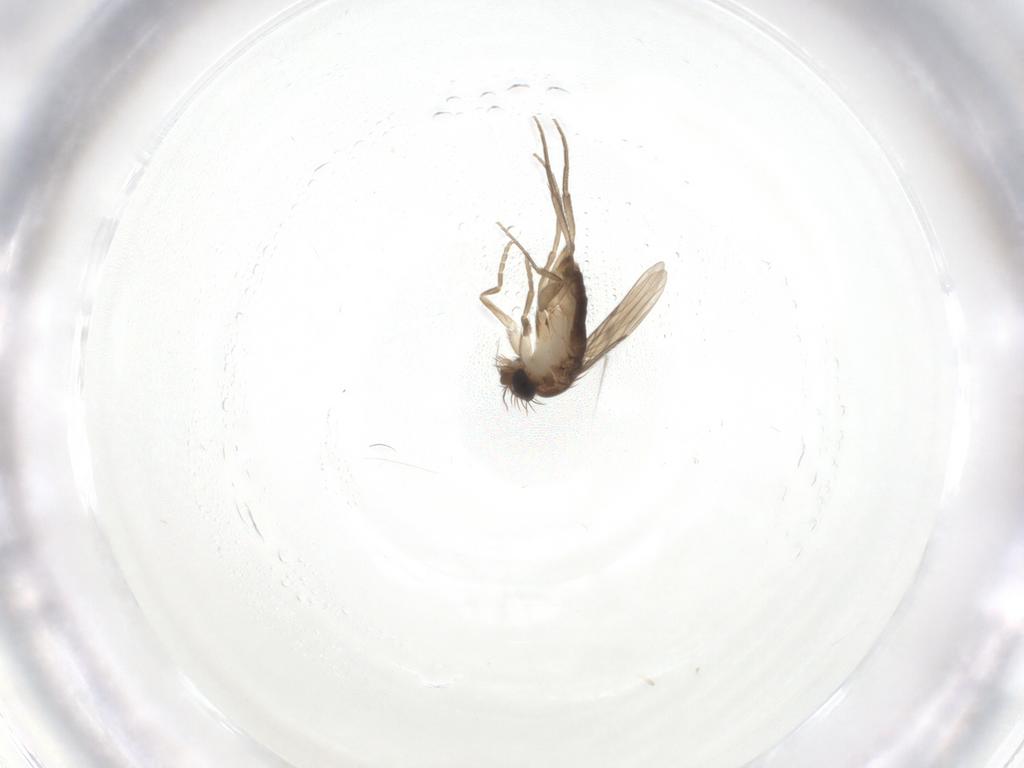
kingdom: Animalia
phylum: Arthropoda
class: Insecta
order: Diptera
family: Phoridae
